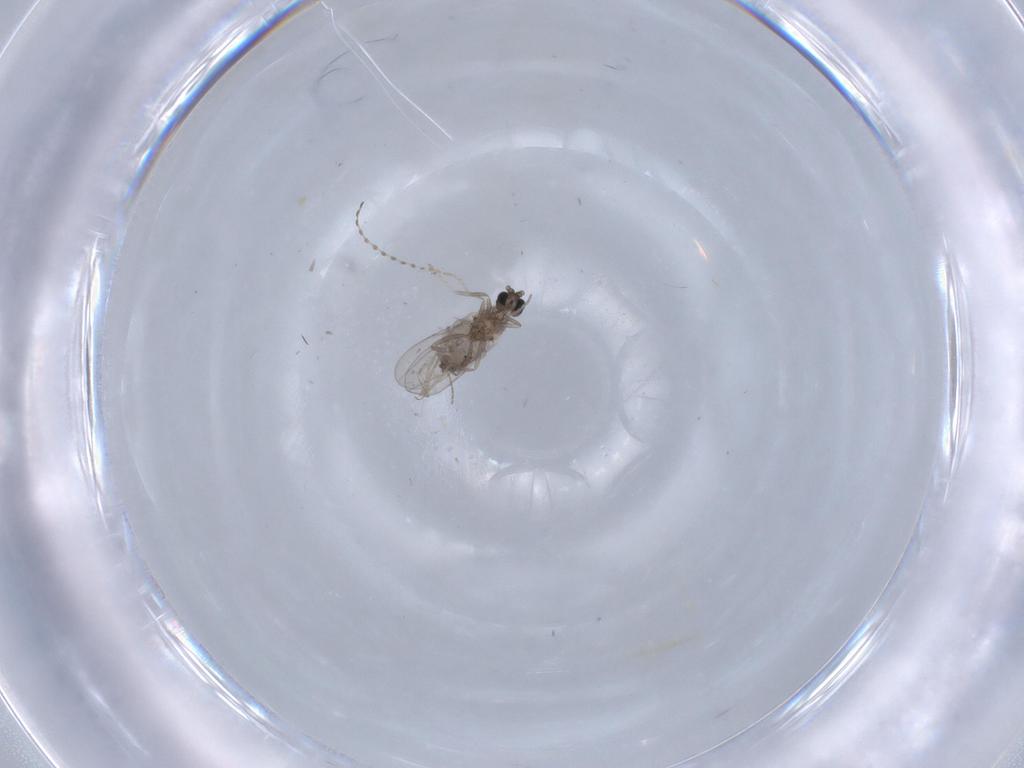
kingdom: Animalia
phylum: Arthropoda
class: Insecta
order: Diptera
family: Cecidomyiidae
